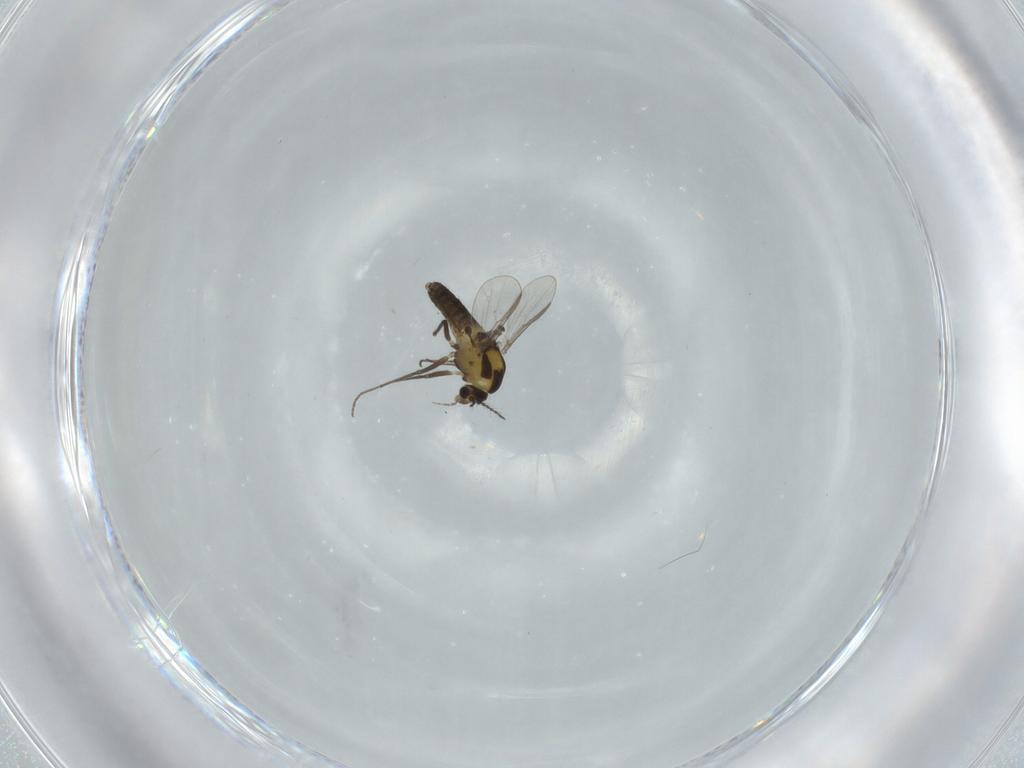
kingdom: Animalia
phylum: Arthropoda
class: Insecta
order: Diptera
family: Chironomidae
